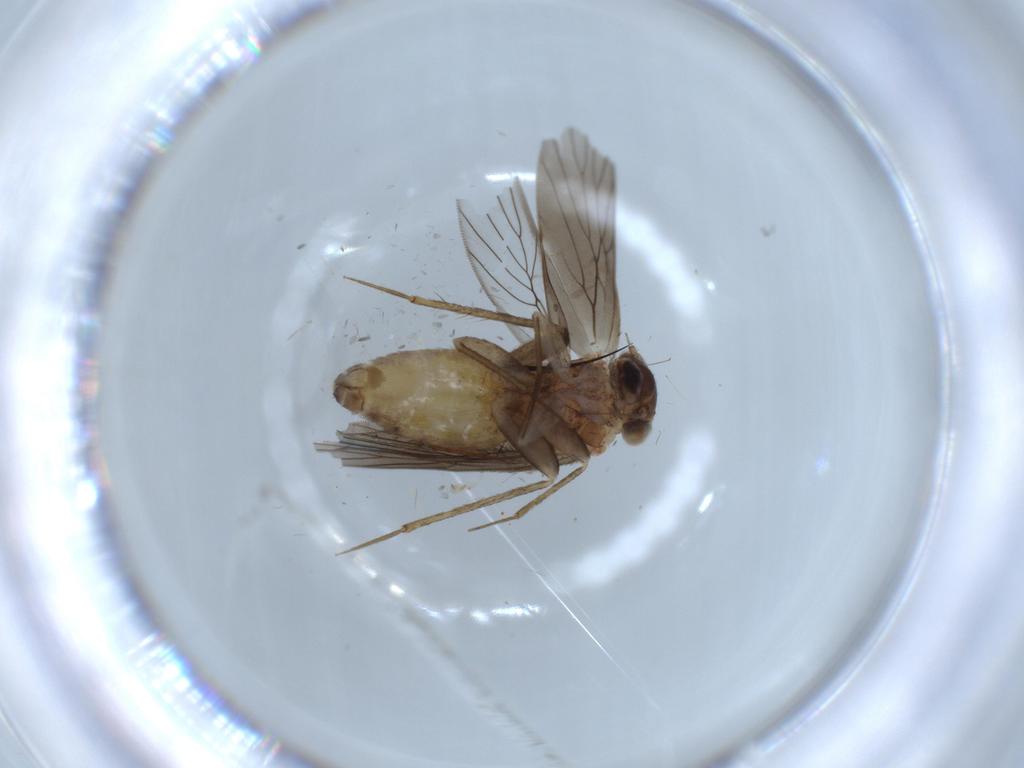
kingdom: Animalia
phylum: Arthropoda
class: Insecta
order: Psocodea
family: Lepidopsocidae
